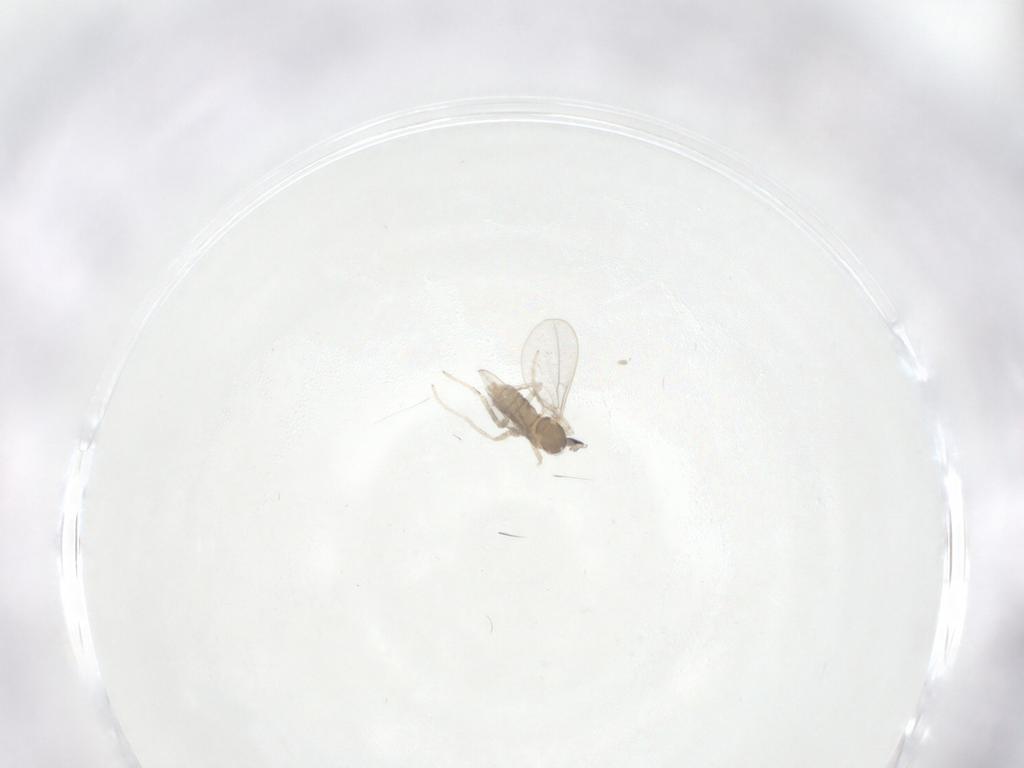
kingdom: Animalia
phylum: Arthropoda
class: Insecta
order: Diptera
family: Cecidomyiidae
